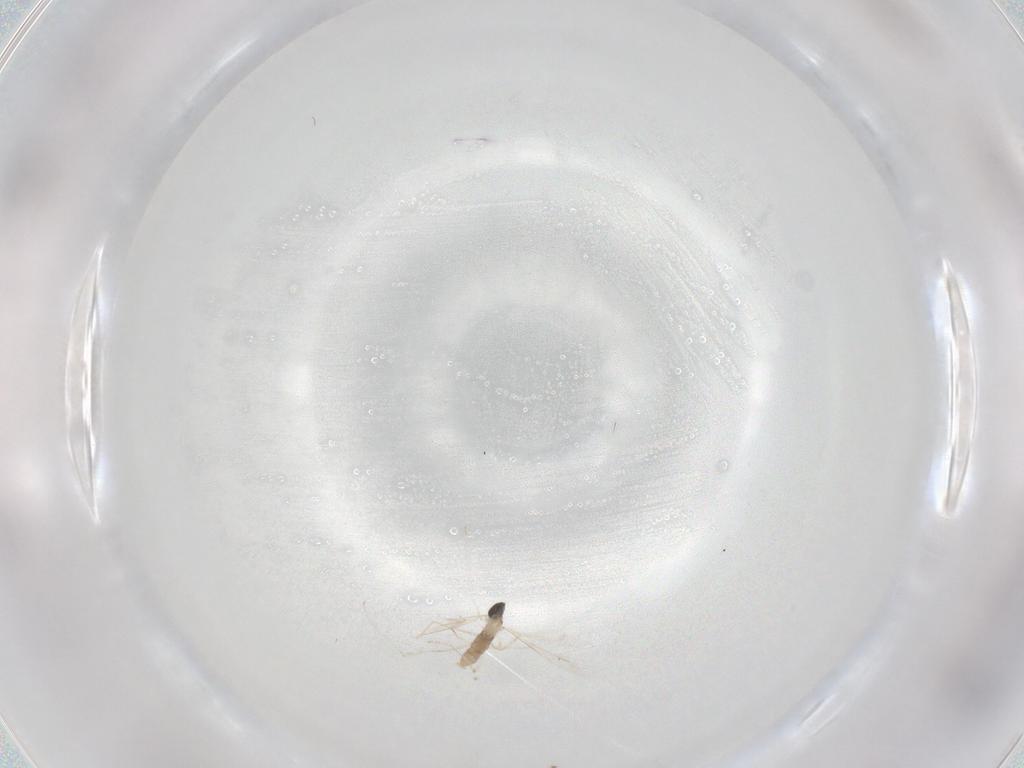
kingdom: Animalia
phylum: Arthropoda
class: Insecta
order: Diptera
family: Cecidomyiidae
